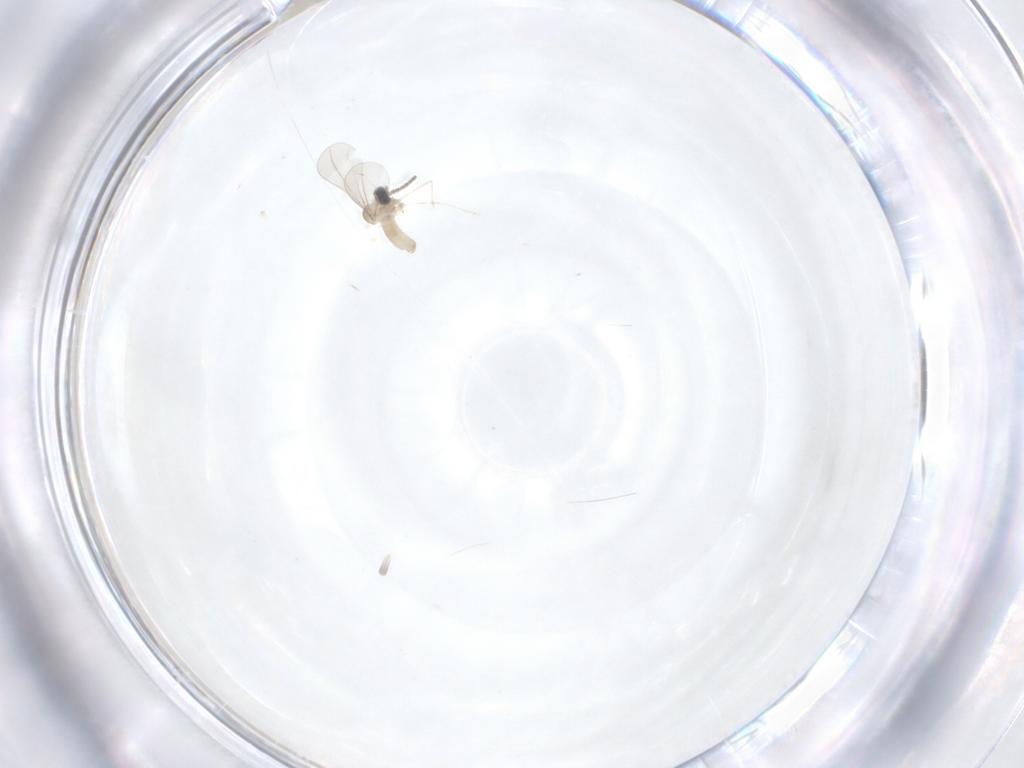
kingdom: Animalia
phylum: Arthropoda
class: Insecta
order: Diptera
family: Cecidomyiidae
